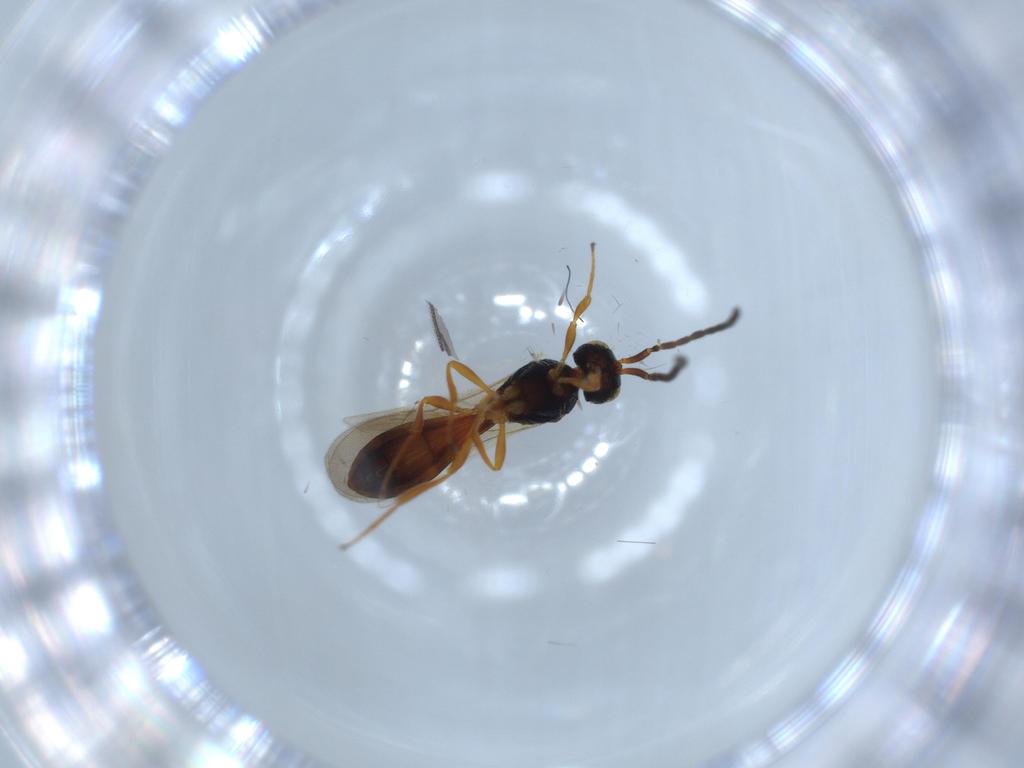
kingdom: Animalia
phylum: Arthropoda
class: Insecta
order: Hymenoptera
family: Scelionidae
